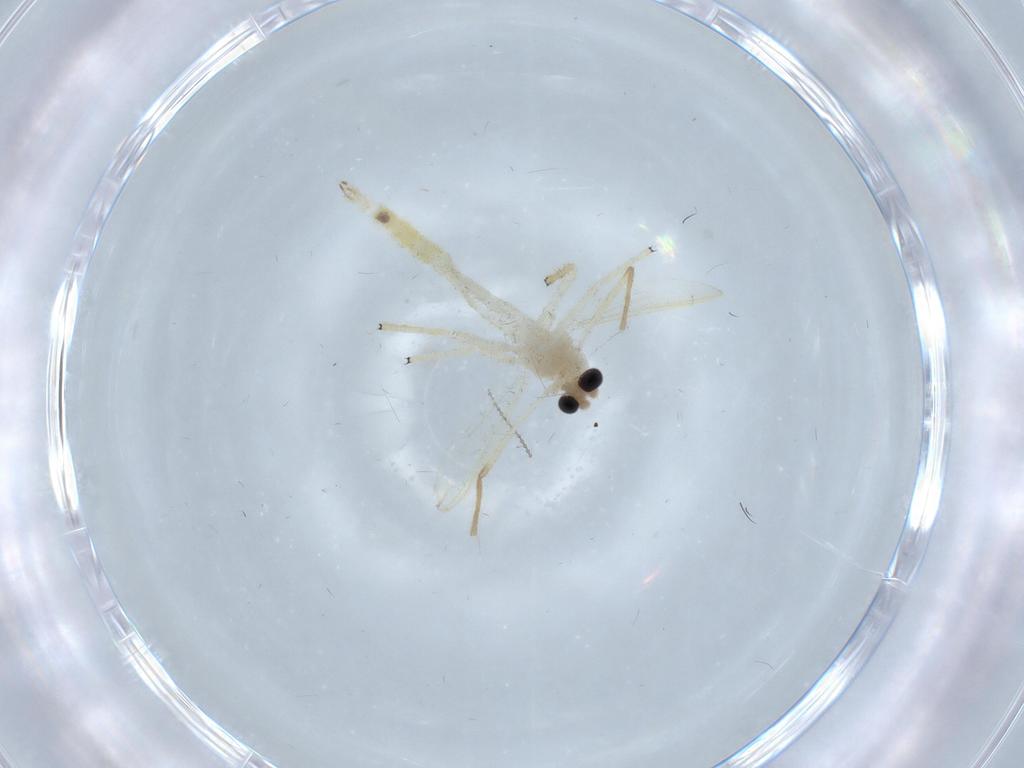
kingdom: Animalia
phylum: Arthropoda
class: Insecta
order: Diptera
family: Chironomidae
